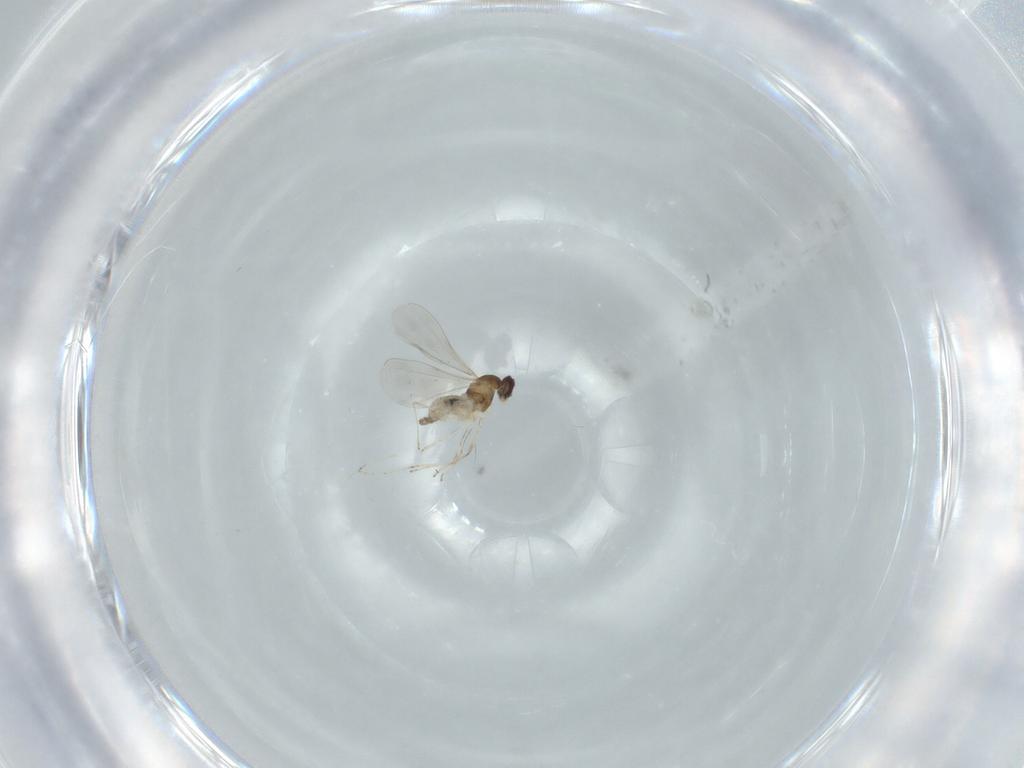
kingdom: Animalia
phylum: Arthropoda
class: Insecta
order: Diptera
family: Cecidomyiidae
